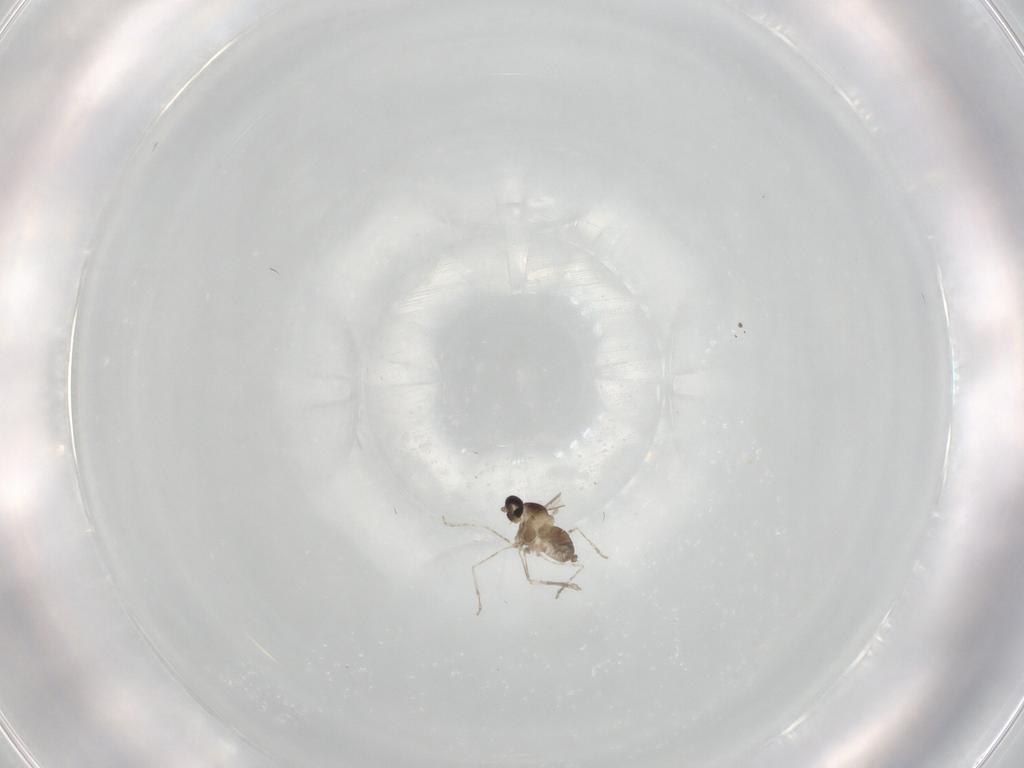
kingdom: Animalia
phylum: Arthropoda
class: Insecta
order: Diptera
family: Cecidomyiidae
